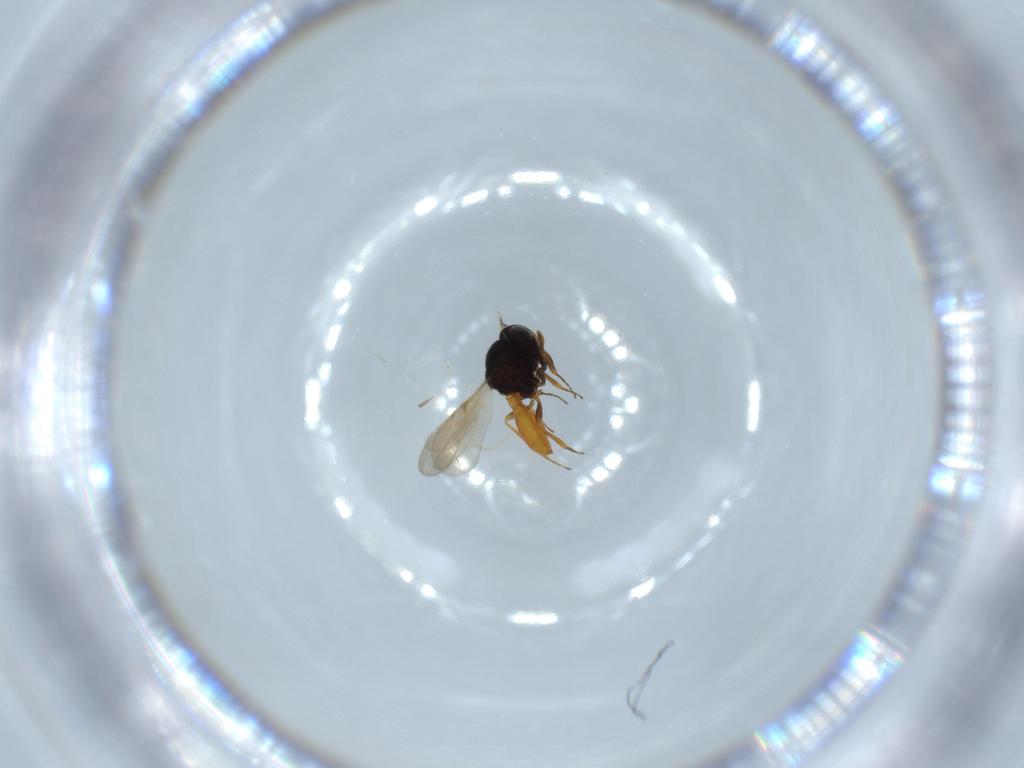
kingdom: Animalia
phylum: Arthropoda
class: Insecta
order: Hymenoptera
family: Scelionidae
